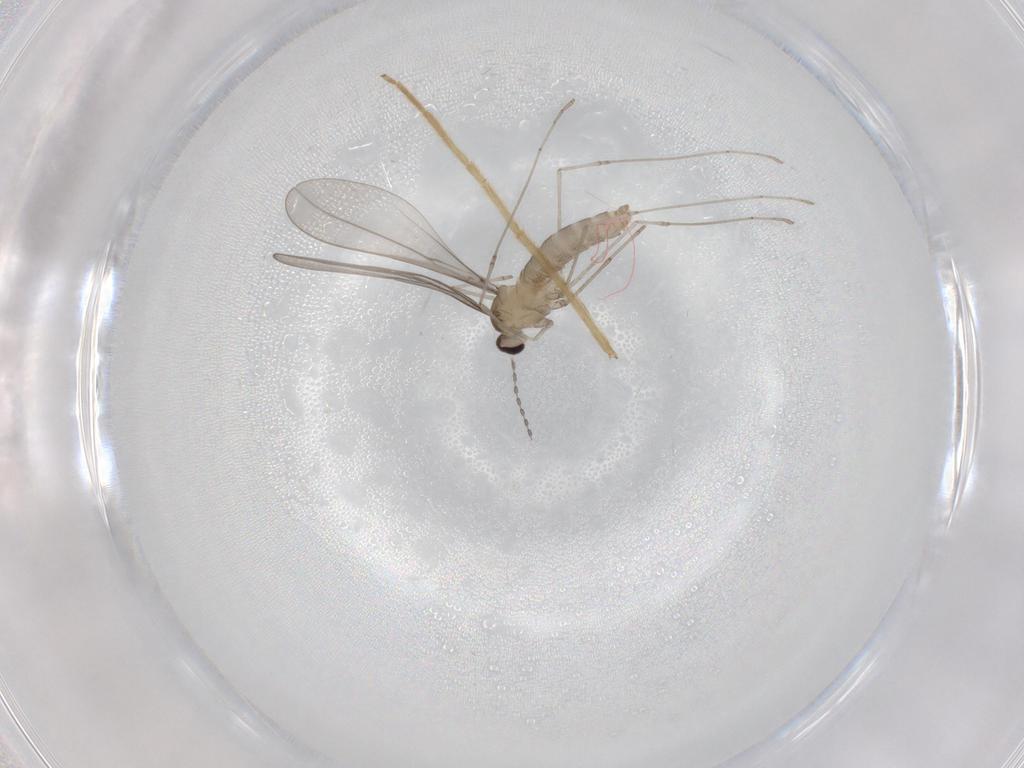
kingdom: Animalia
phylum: Arthropoda
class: Insecta
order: Diptera
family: Cecidomyiidae
